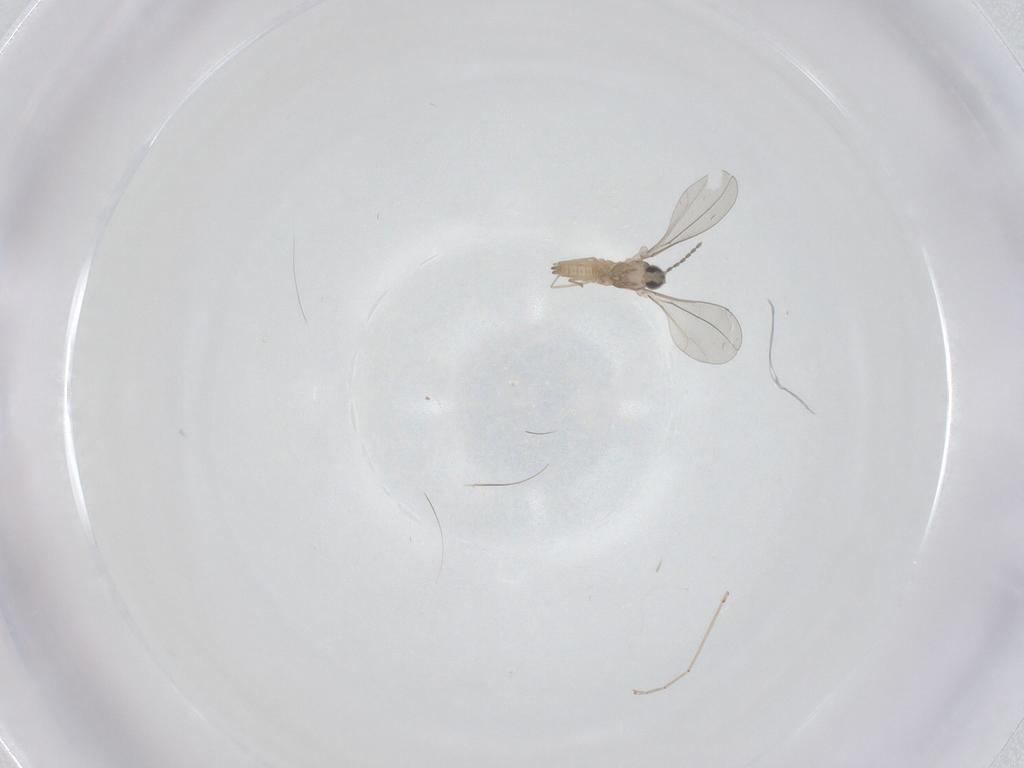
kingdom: Animalia
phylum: Arthropoda
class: Insecta
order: Diptera
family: Cecidomyiidae
